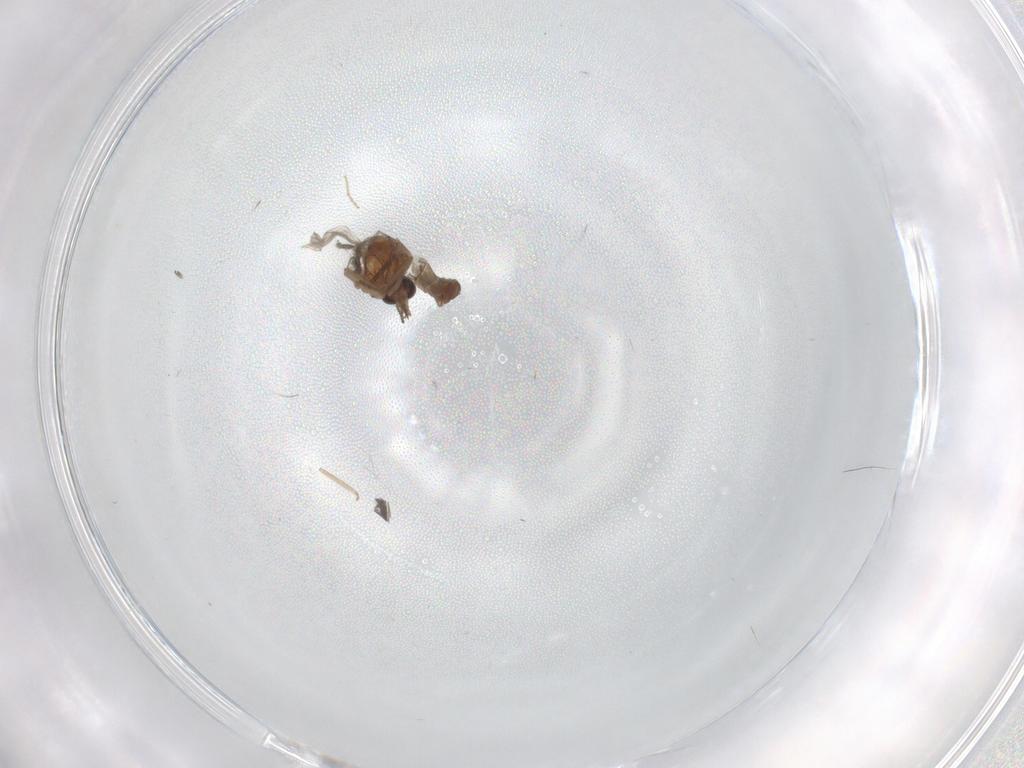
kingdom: Animalia
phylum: Arthropoda
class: Insecta
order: Diptera
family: Ceratopogonidae
